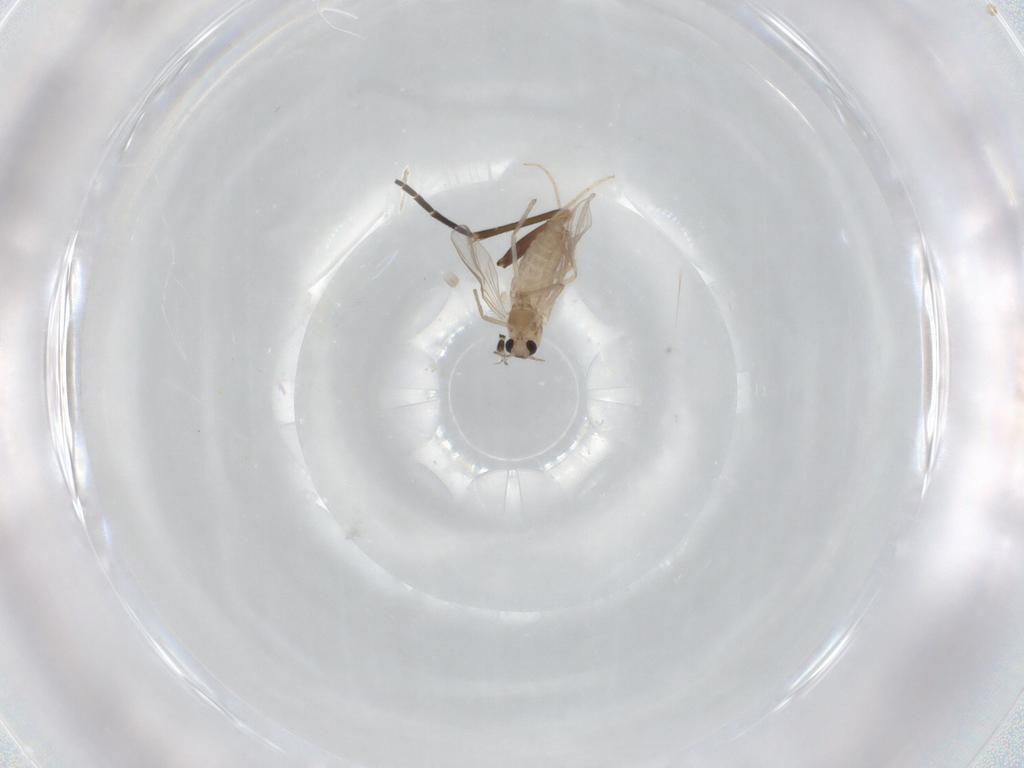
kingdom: Animalia
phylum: Arthropoda
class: Insecta
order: Diptera
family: Chironomidae
